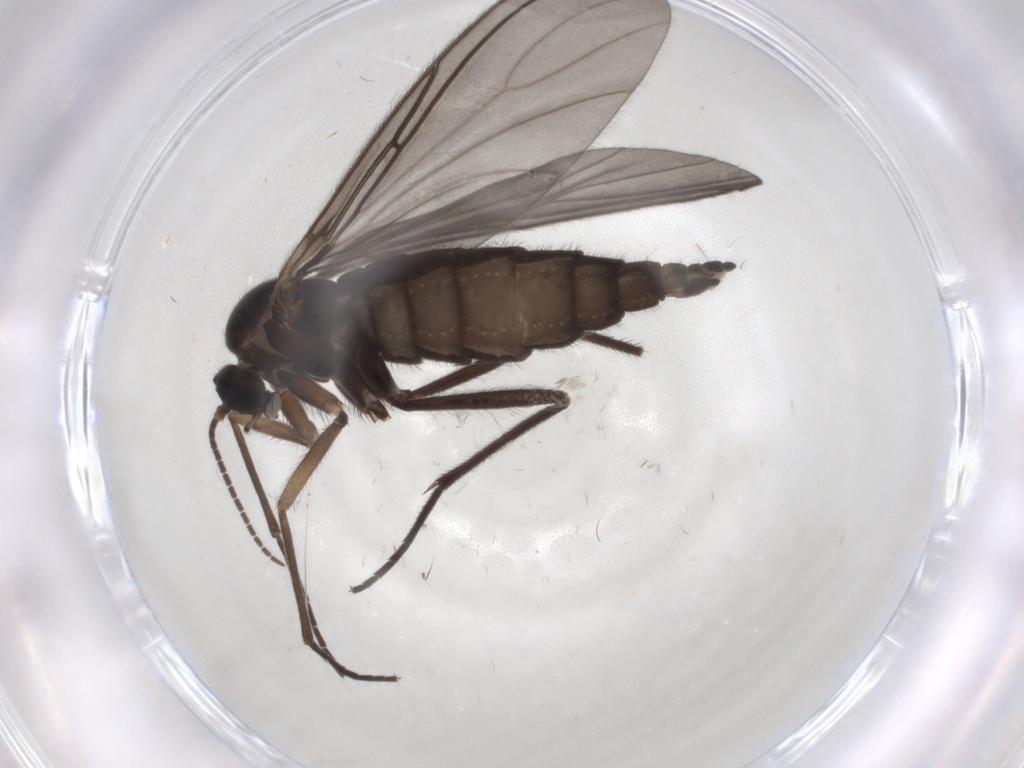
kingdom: Animalia
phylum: Arthropoda
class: Insecta
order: Diptera
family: Sciaridae
